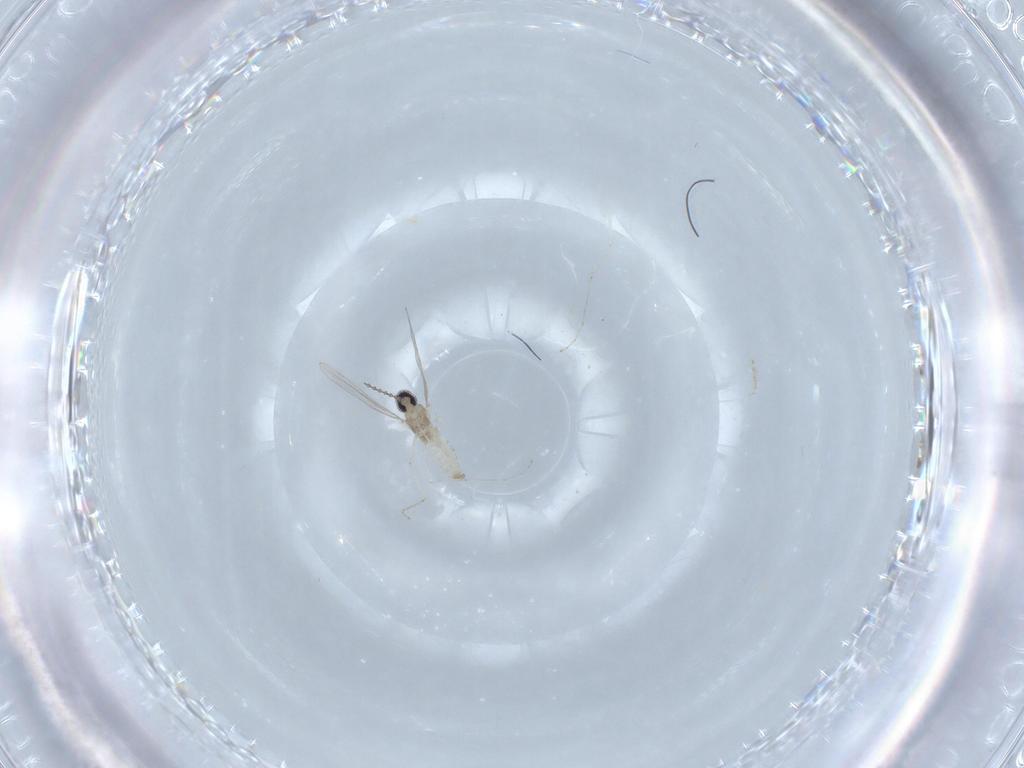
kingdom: Animalia
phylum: Arthropoda
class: Insecta
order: Diptera
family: Cecidomyiidae
